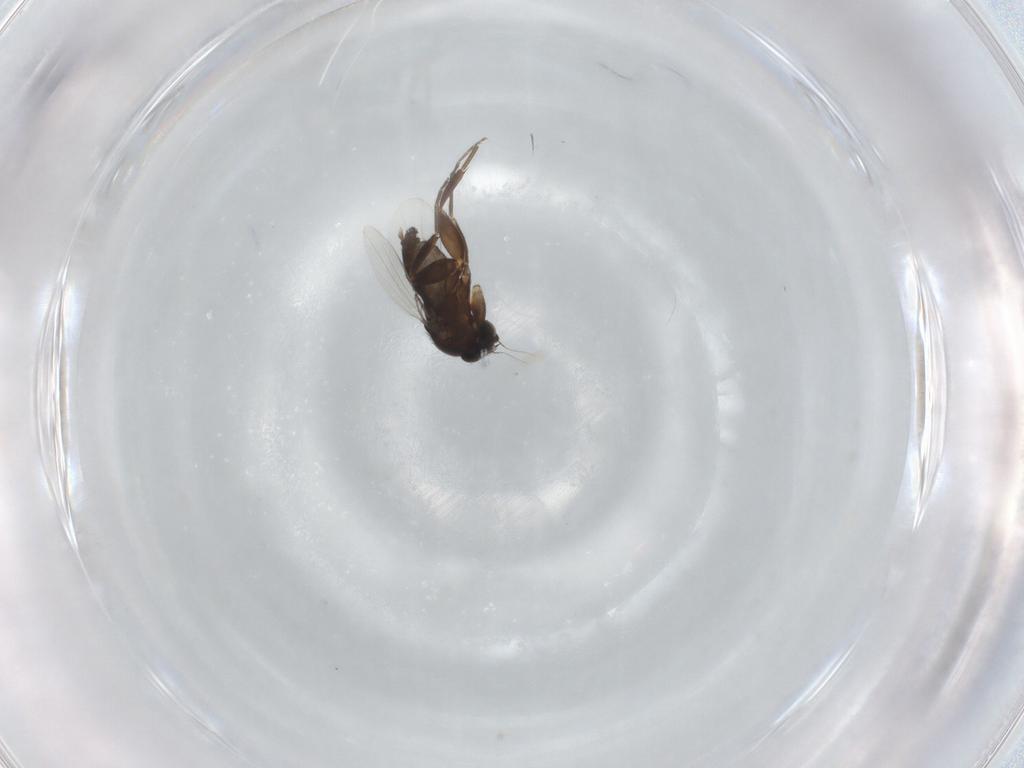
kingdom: Animalia
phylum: Arthropoda
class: Insecta
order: Diptera
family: Phoridae
